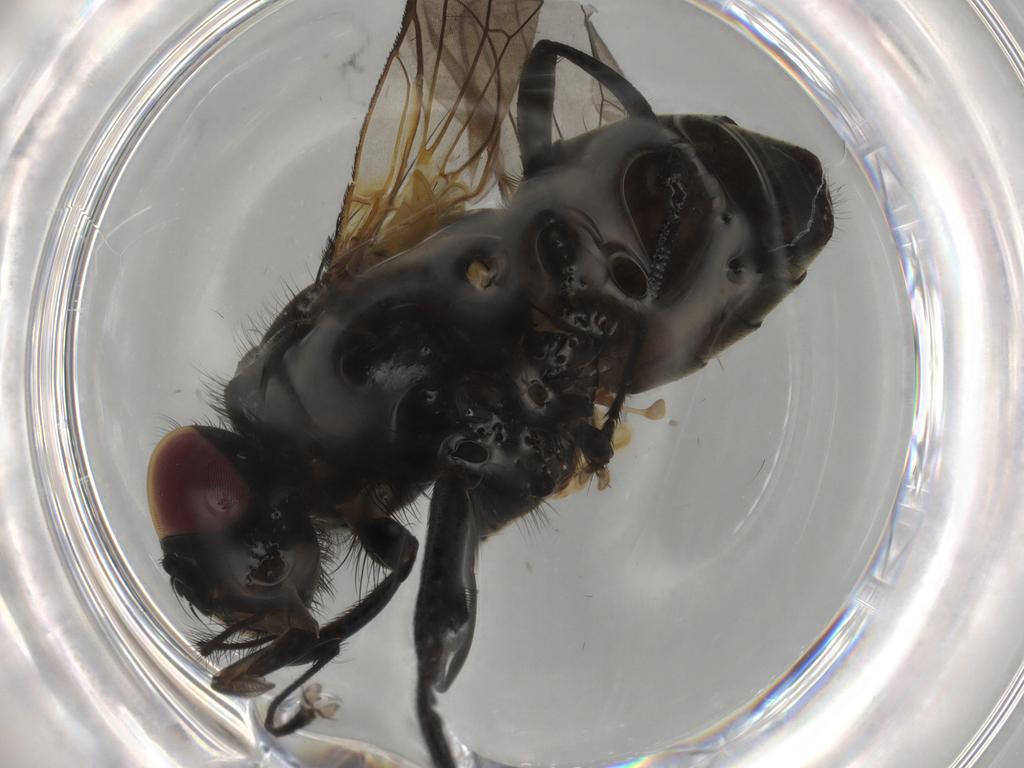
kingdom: Animalia
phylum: Arthropoda
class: Insecta
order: Diptera
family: Muscidae
